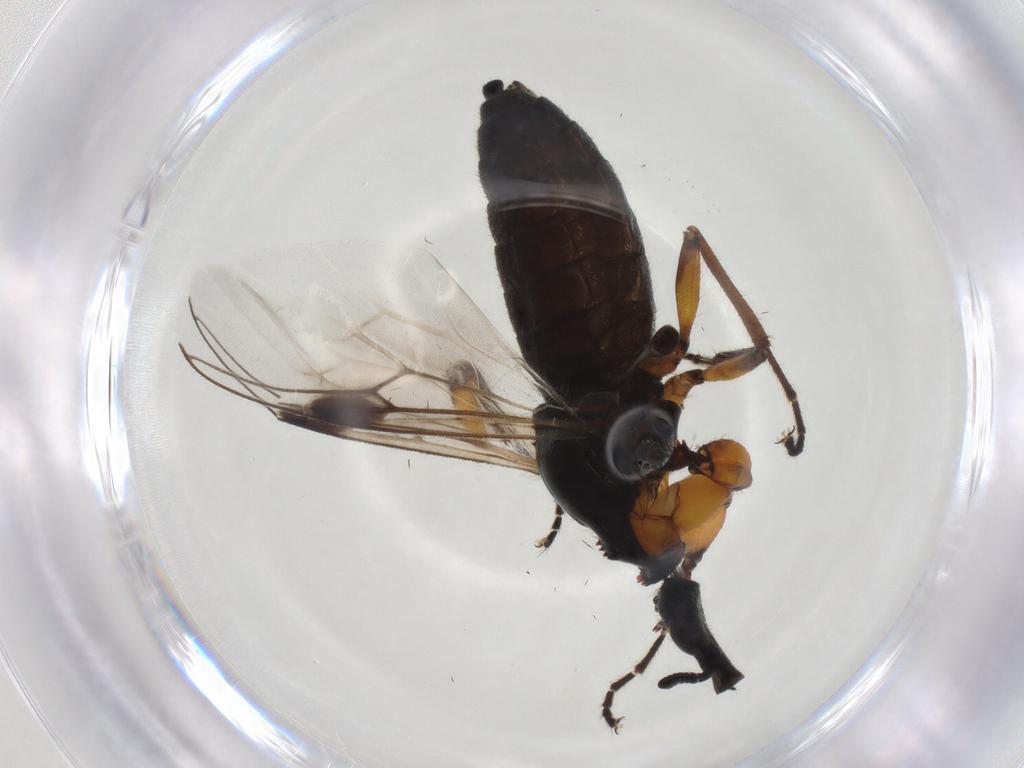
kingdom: Animalia
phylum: Arthropoda
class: Insecta
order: Diptera
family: Bibionidae
